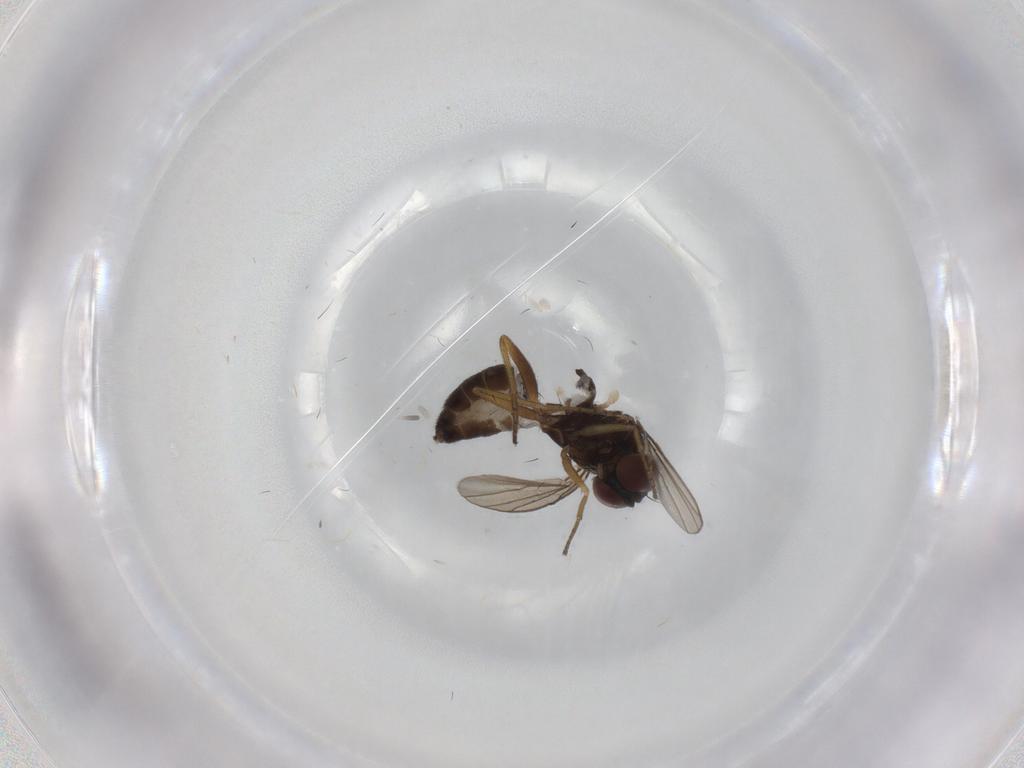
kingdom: Animalia
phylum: Arthropoda
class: Insecta
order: Diptera
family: Dolichopodidae
